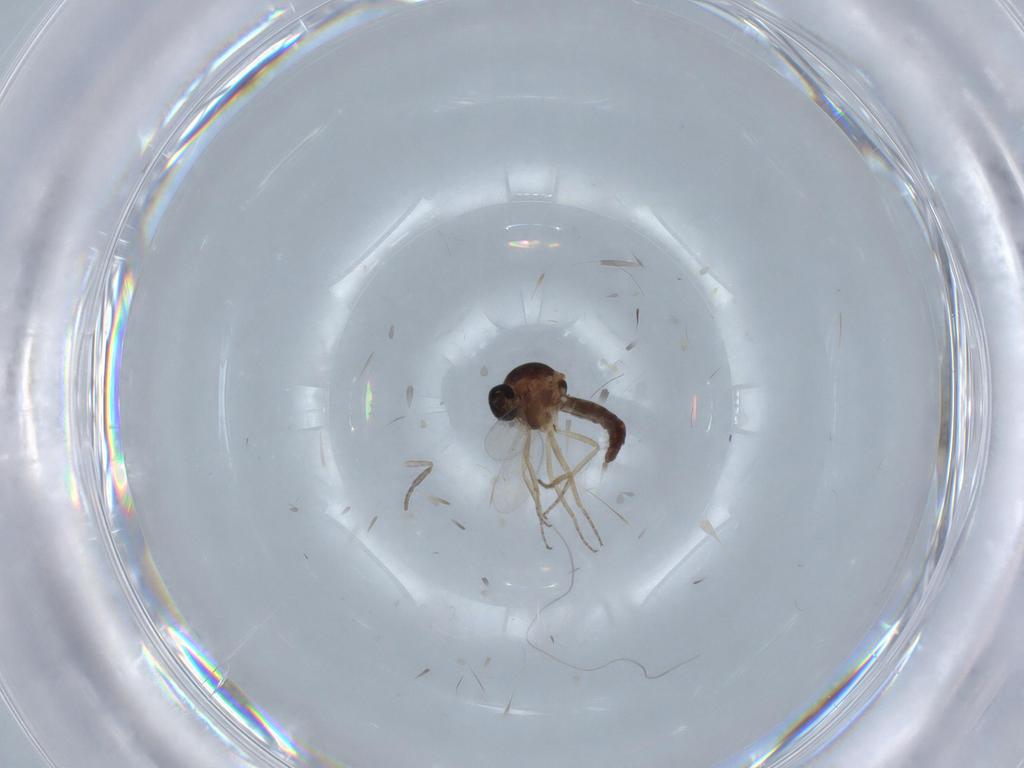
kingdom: Animalia
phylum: Arthropoda
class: Insecta
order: Diptera
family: Ceratopogonidae
